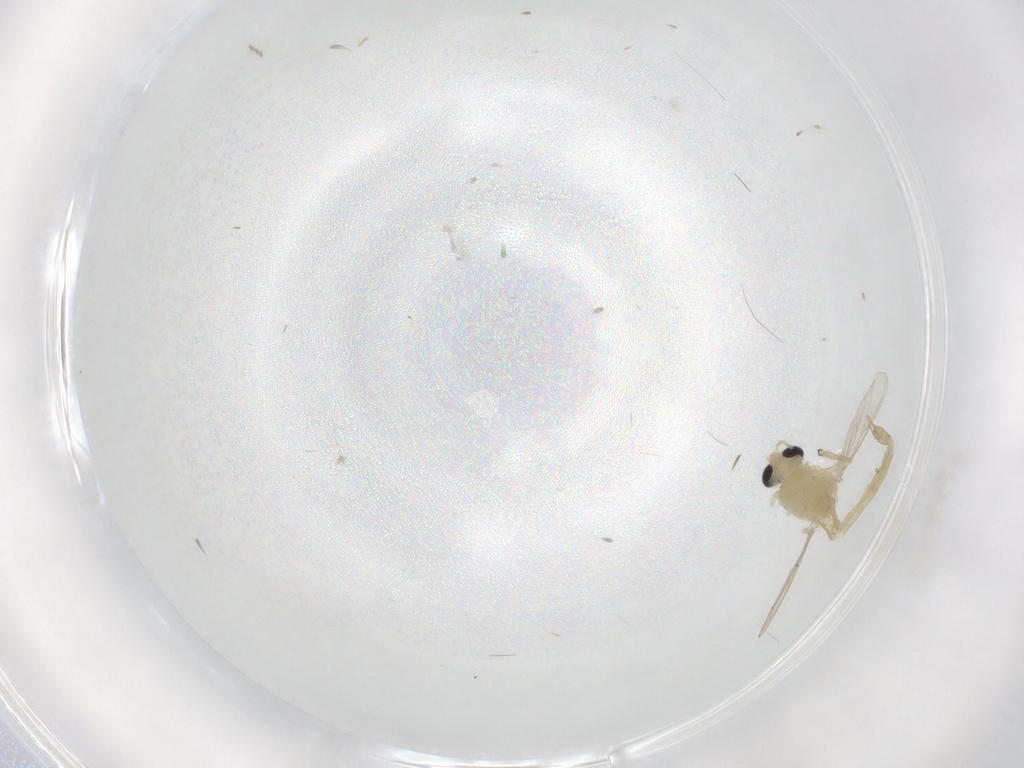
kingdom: Animalia
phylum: Arthropoda
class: Insecta
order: Diptera
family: Chironomidae
